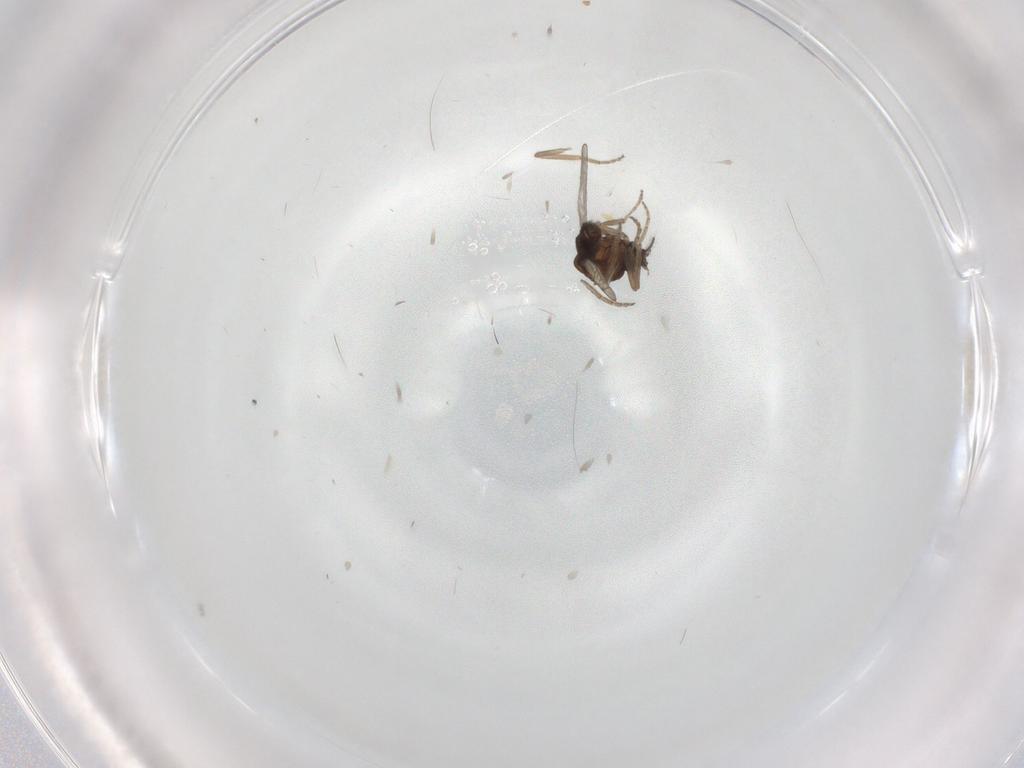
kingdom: Animalia
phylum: Arthropoda
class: Insecta
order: Diptera
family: Ceratopogonidae
